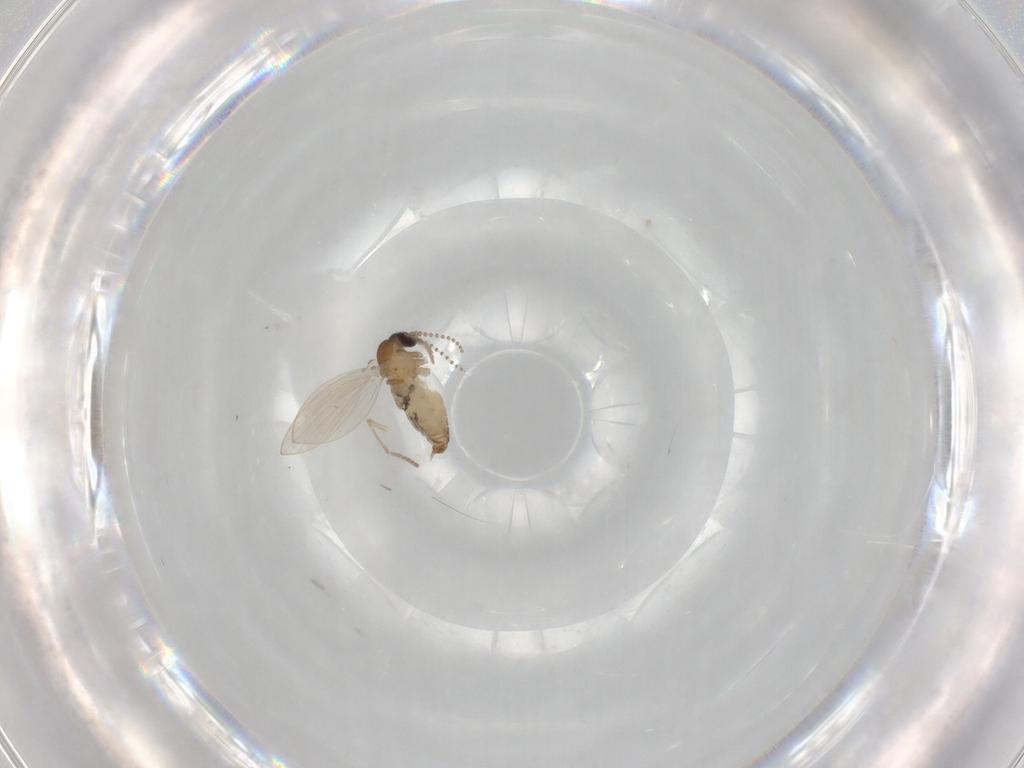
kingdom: Animalia
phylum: Arthropoda
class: Insecta
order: Diptera
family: Psychodidae
